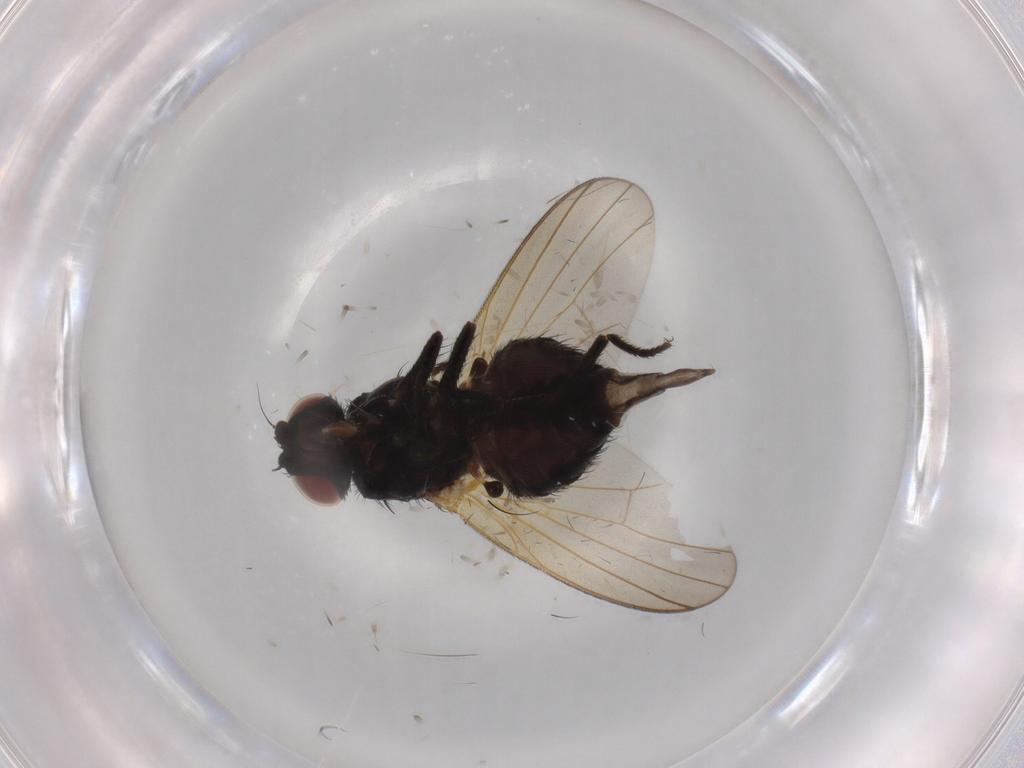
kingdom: Animalia
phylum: Arthropoda
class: Insecta
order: Diptera
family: Lonchaeidae
